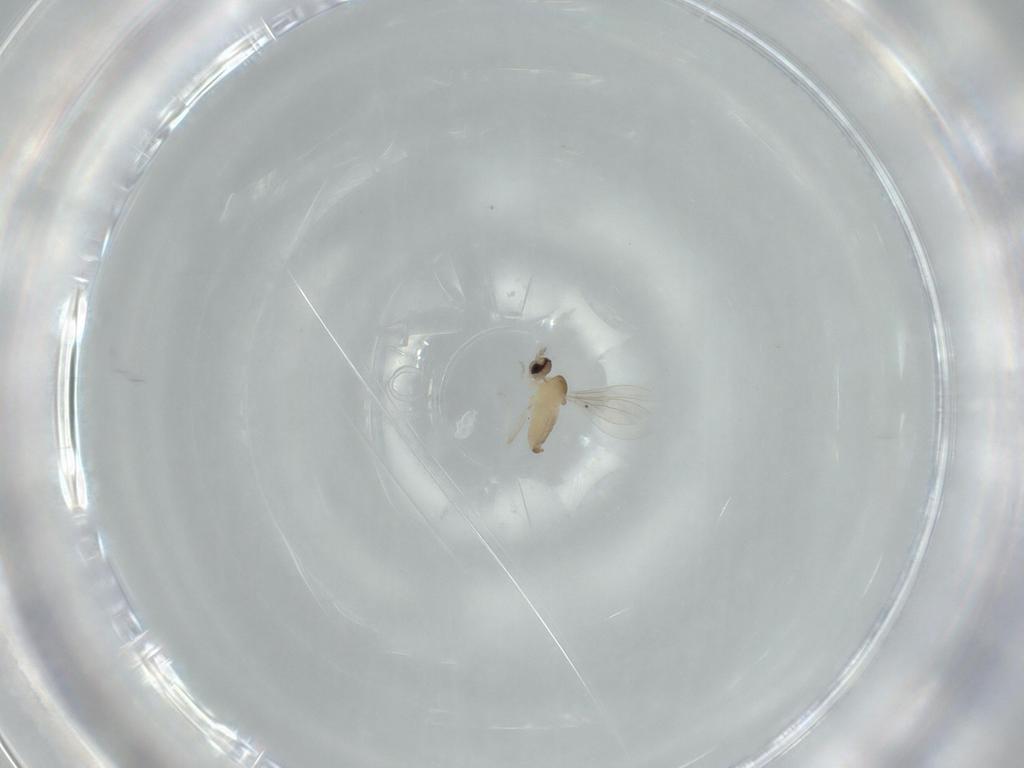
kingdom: Animalia
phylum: Arthropoda
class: Insecta
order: Diptera
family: Cecidomyiidae
